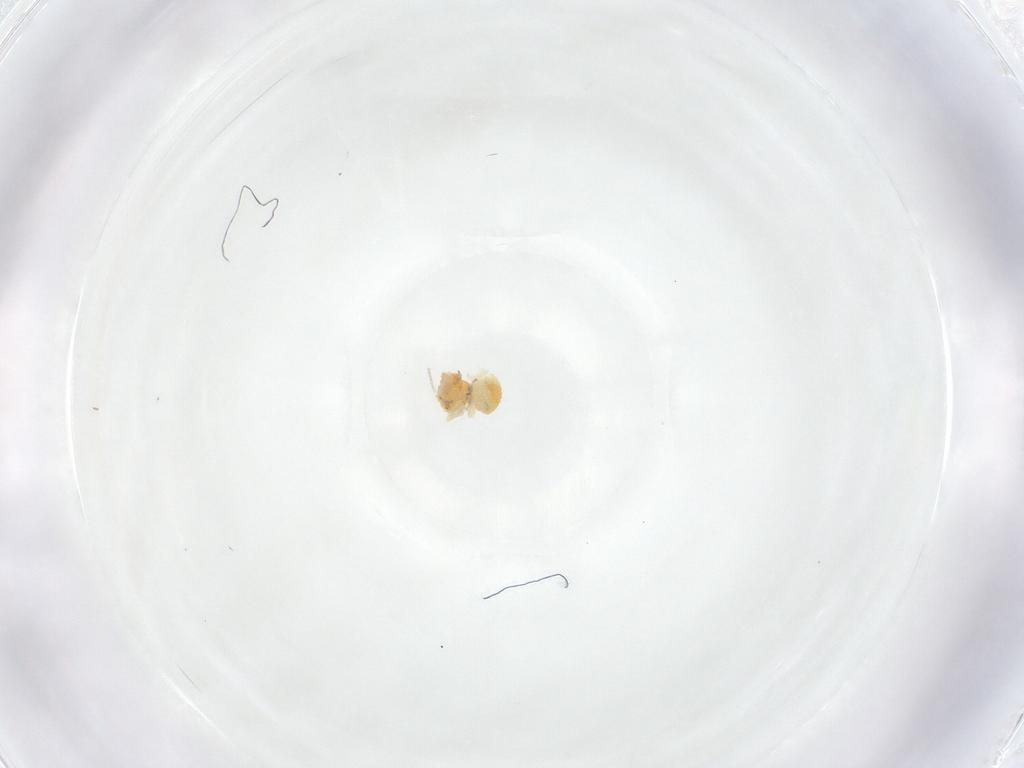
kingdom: Animalia
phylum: Arthropoda
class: Insecta
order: Psocodea
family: Ectopsocidae
